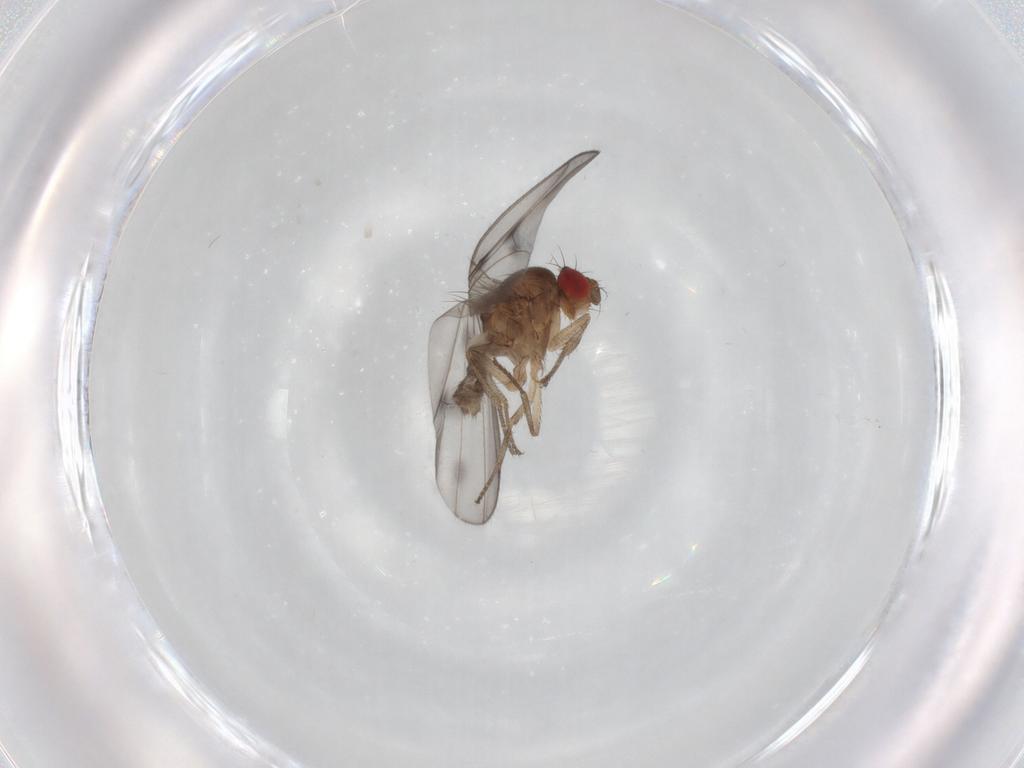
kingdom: Animalia
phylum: Arthropoda
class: Insecta
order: Diptera
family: Drosophilidae
